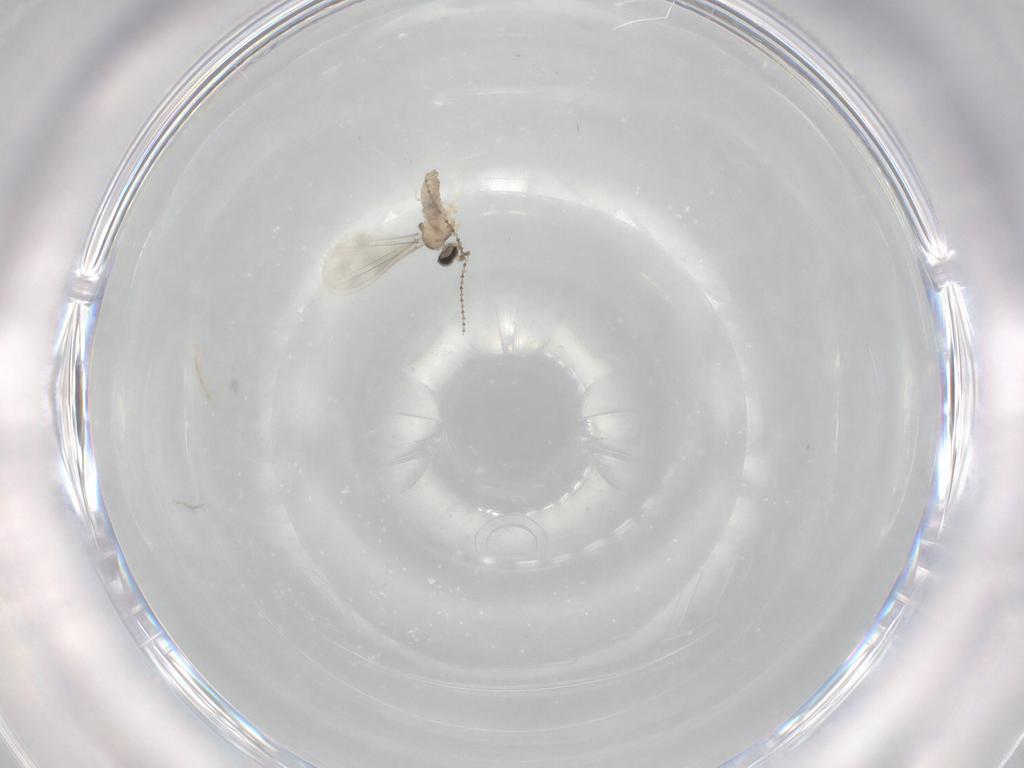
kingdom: Animalia
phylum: Arthropoda
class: Insecta
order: Diptera
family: Cecidomyiidae
